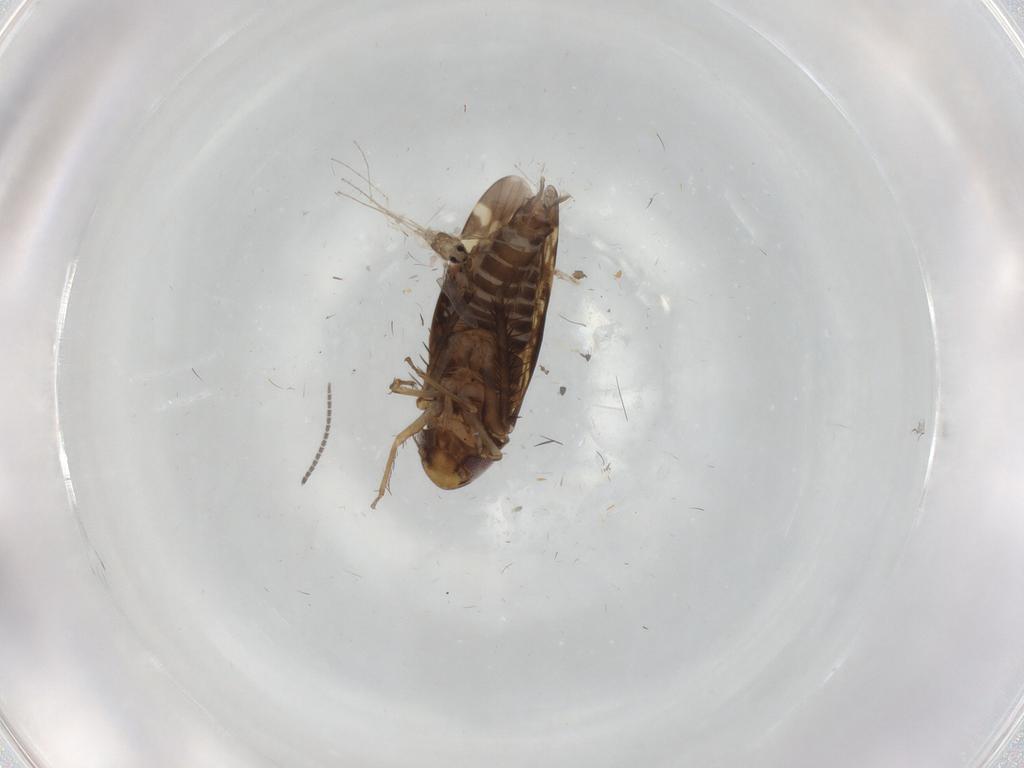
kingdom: Animalia
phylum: Arthropoda
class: Insecta
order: Hemiptera
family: Cicadellidae
